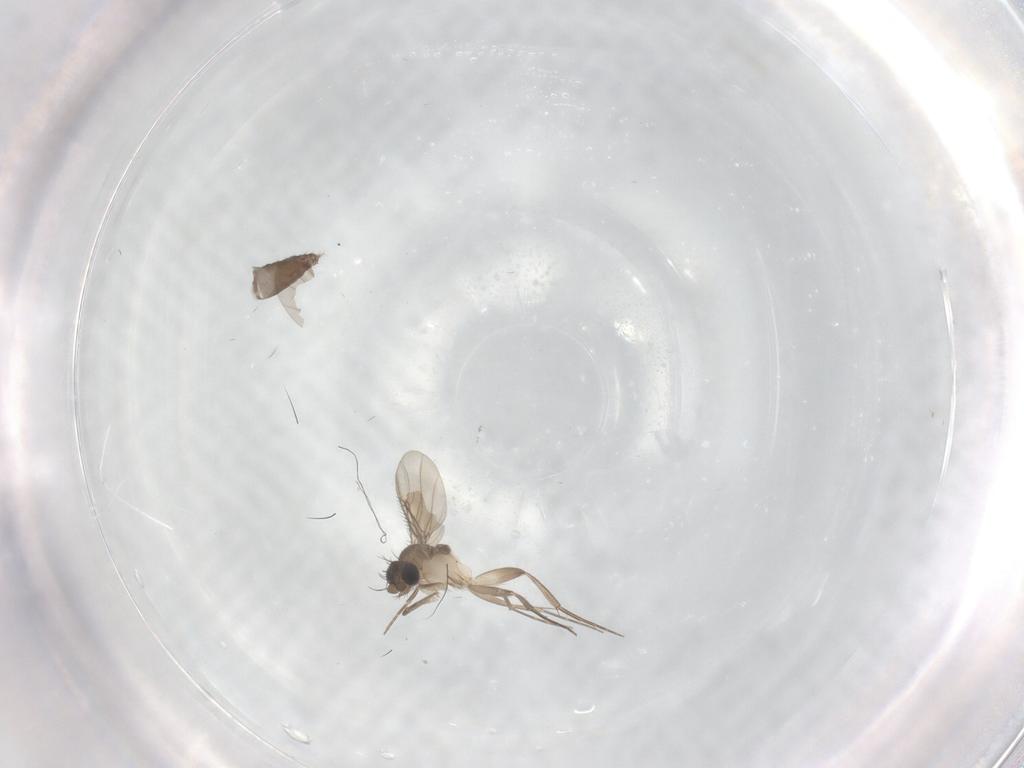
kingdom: Animalia
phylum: Arthropoda
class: Insecta
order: Diptera
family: Phoridae
